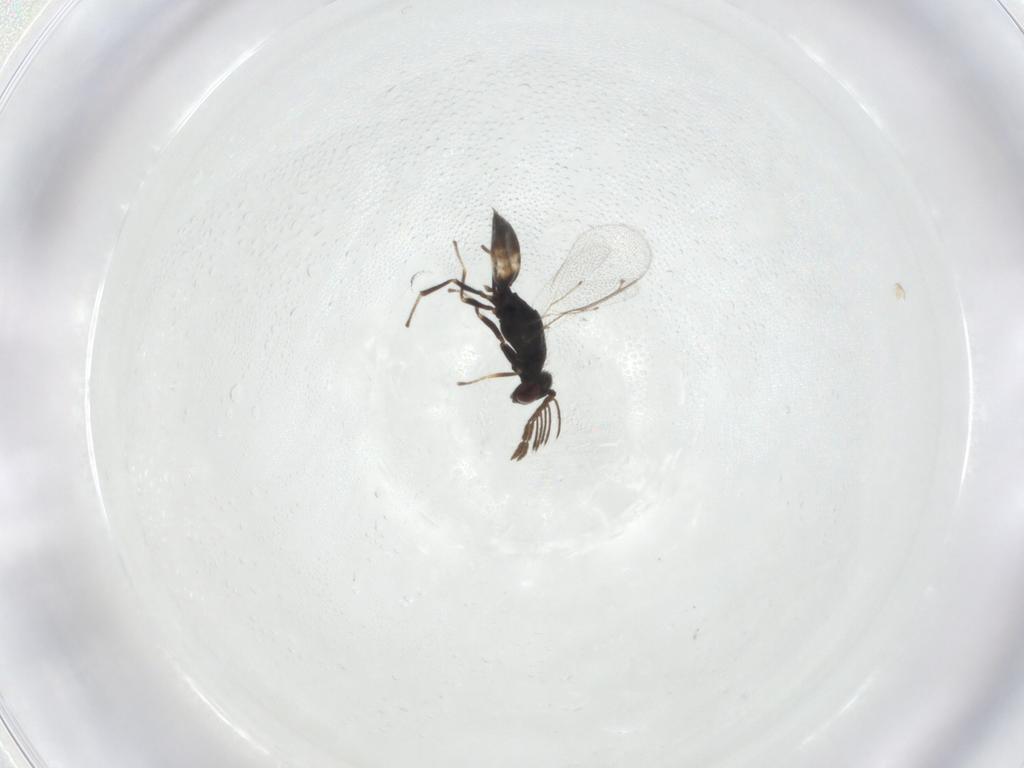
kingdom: Animalia
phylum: Arthropoda
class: Insecta
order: Hymenoptera
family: Eulophidae
